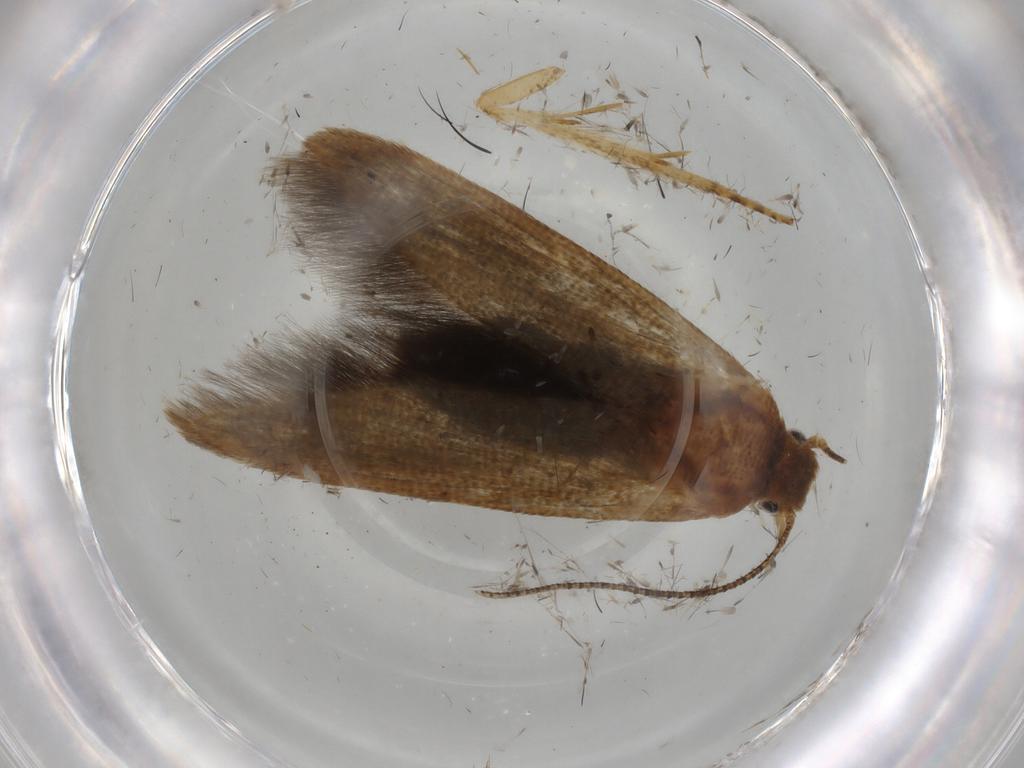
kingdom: Animalia
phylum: Arthropoda
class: Insecta
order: Lepidoptera
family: Blastobasidae
